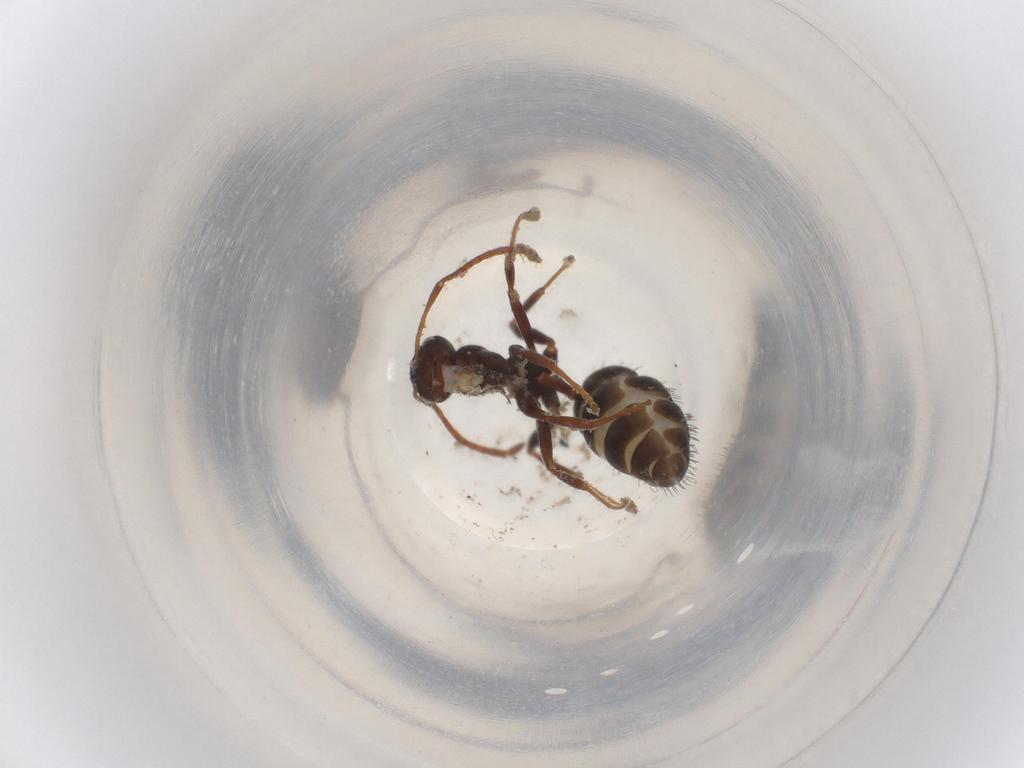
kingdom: Animalia
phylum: Arthropoda
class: Insecta
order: Hymenoptera
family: Formicidae
